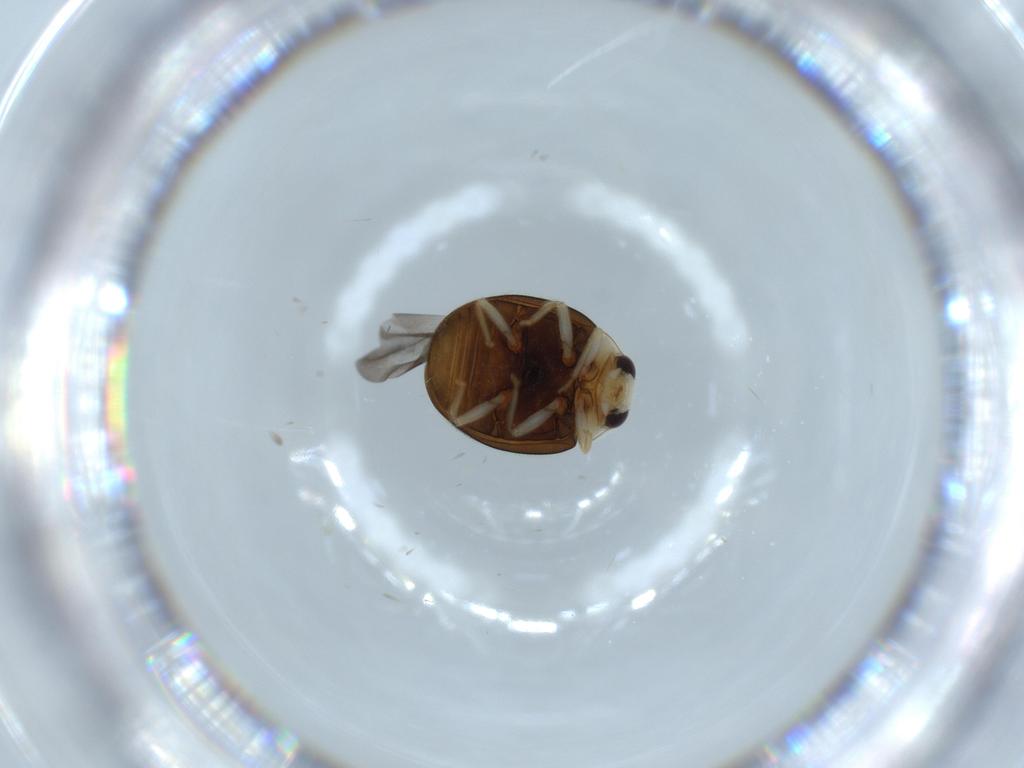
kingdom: Animalia
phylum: Arthropoda
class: Insecta
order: Coleoptera
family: Coccinellidae
